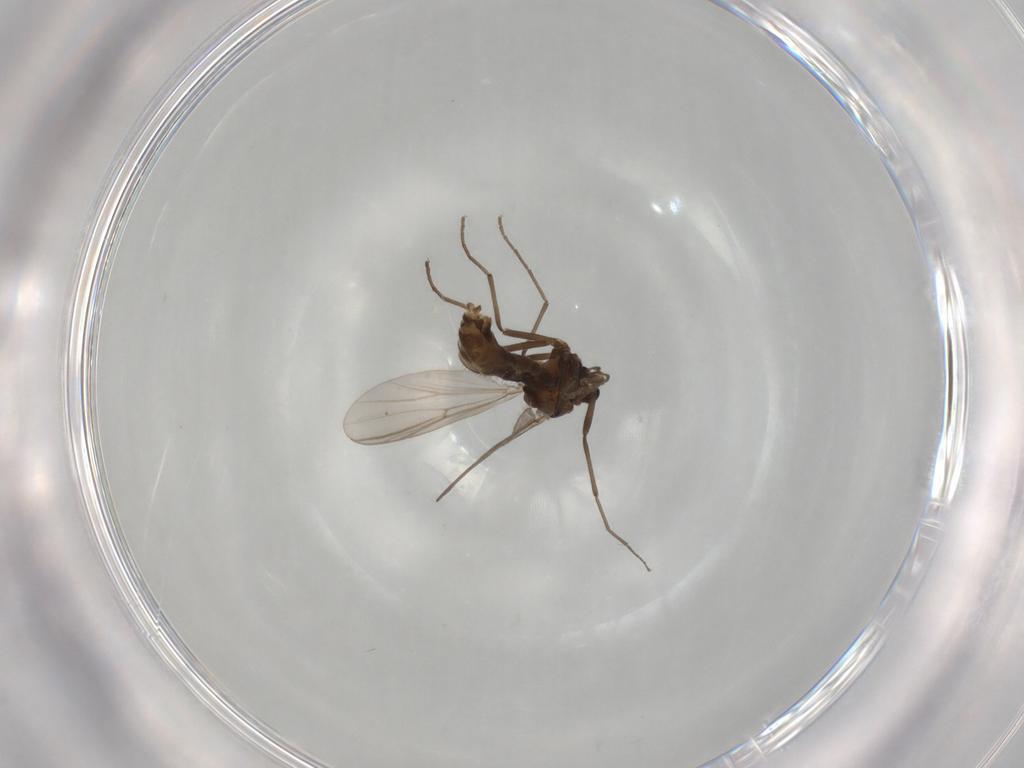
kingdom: Animalia
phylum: Arthropoda
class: Insecta
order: Diptera
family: Chironomidae
